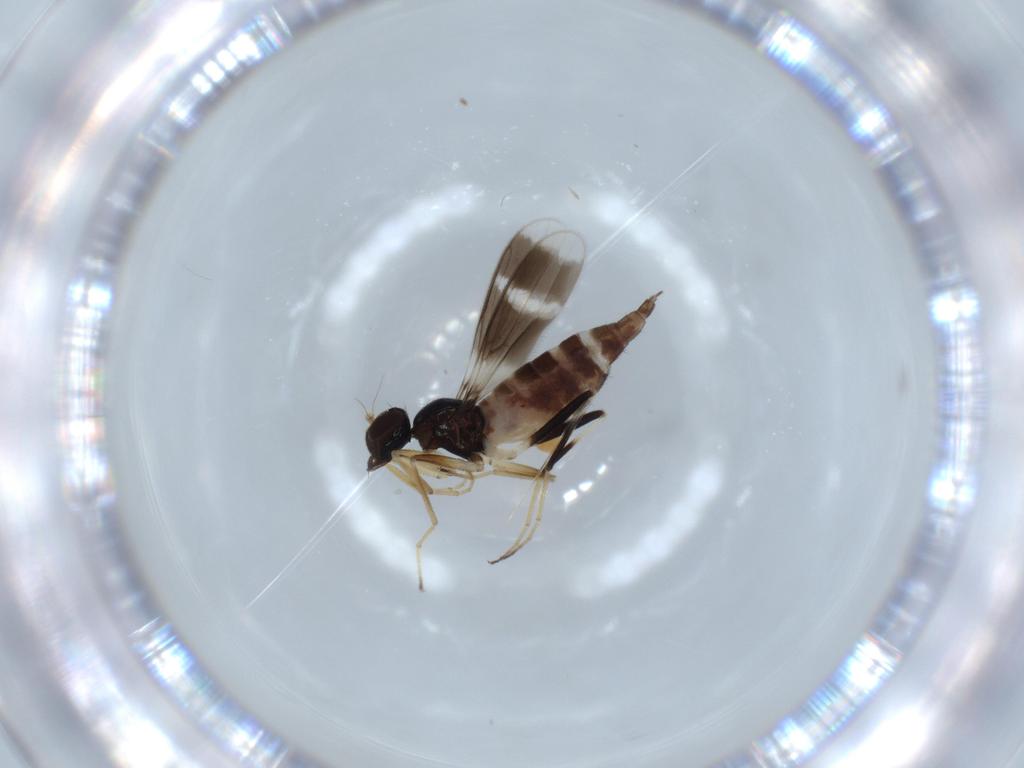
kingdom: Animalia
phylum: Arthropoda
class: Insecta
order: Diptera
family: Hybotidae
